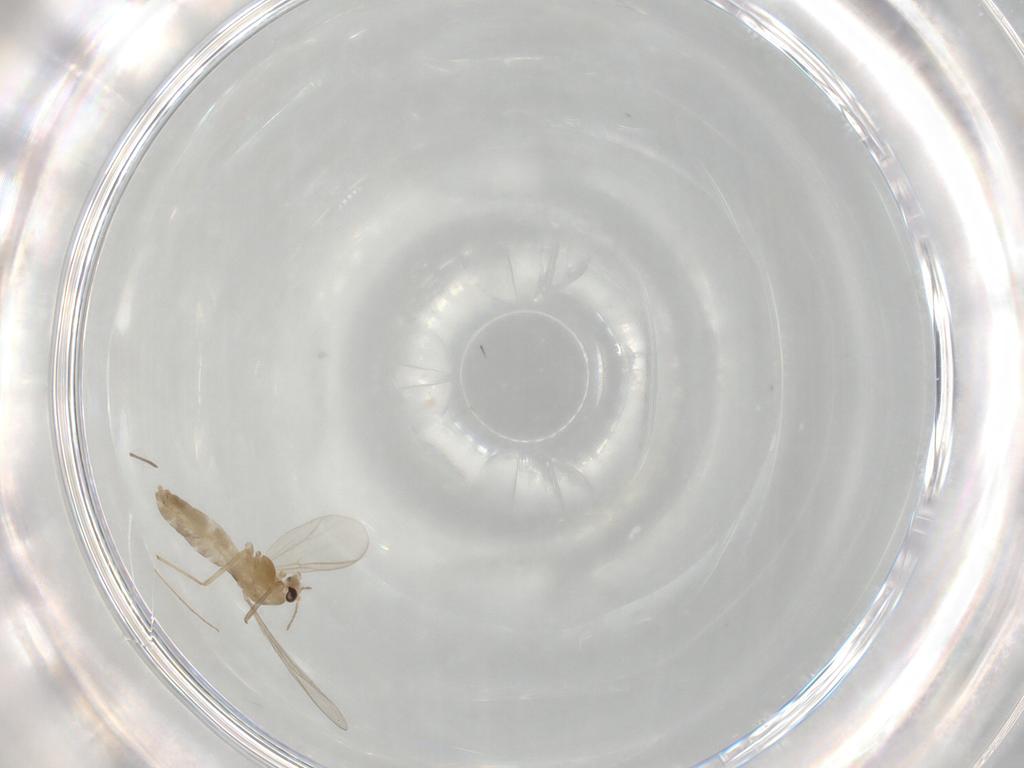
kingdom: Animalia
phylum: Arthropoda
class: Insecta
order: Diptera
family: Chironomidae
